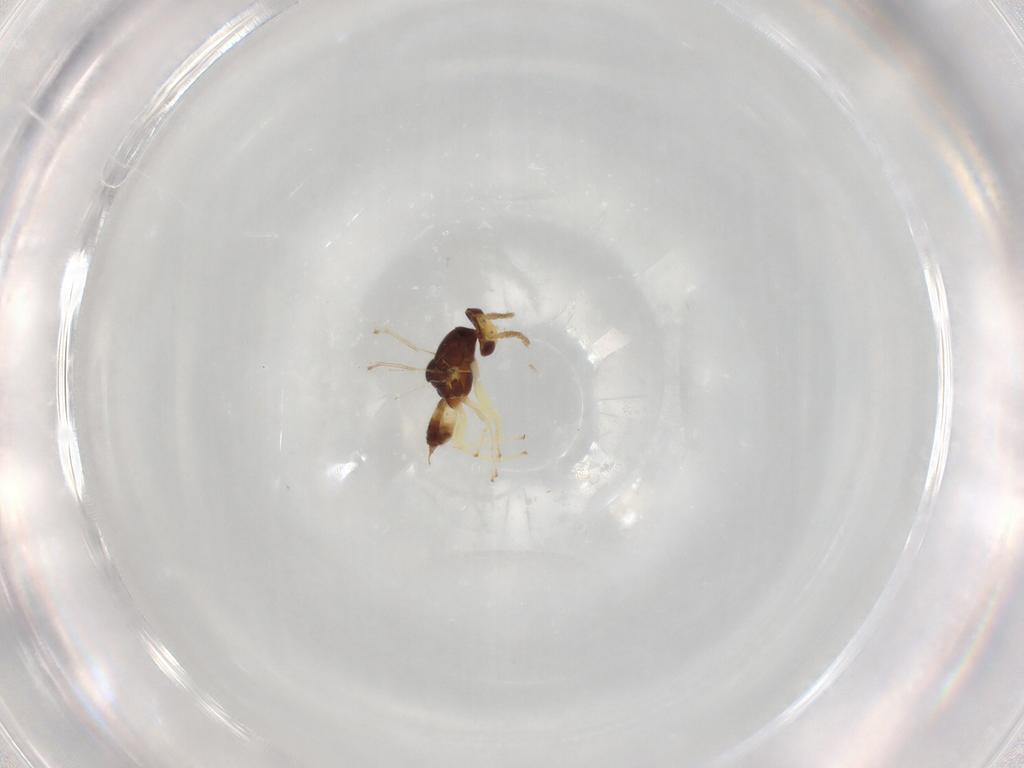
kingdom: Animalia
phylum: Arthropoda
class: Insecta
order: Hymenoptera
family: Eulophidae
